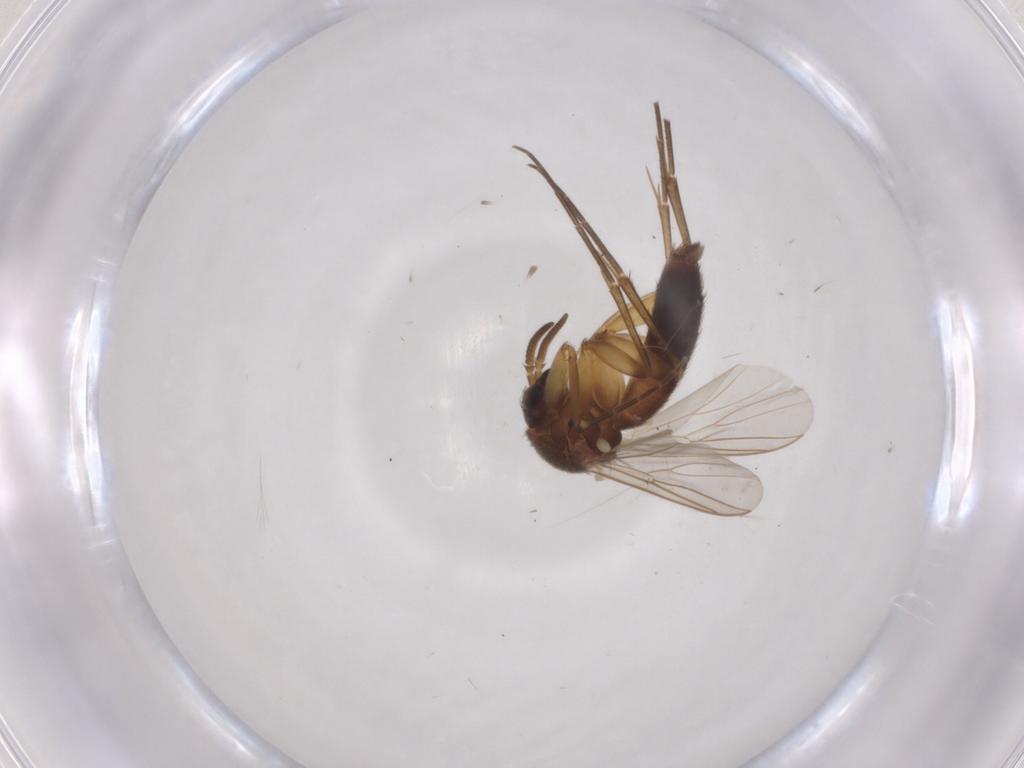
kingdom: Animalia
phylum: Arthropoda
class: Insecta
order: Diptera
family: Mycetophilidae
